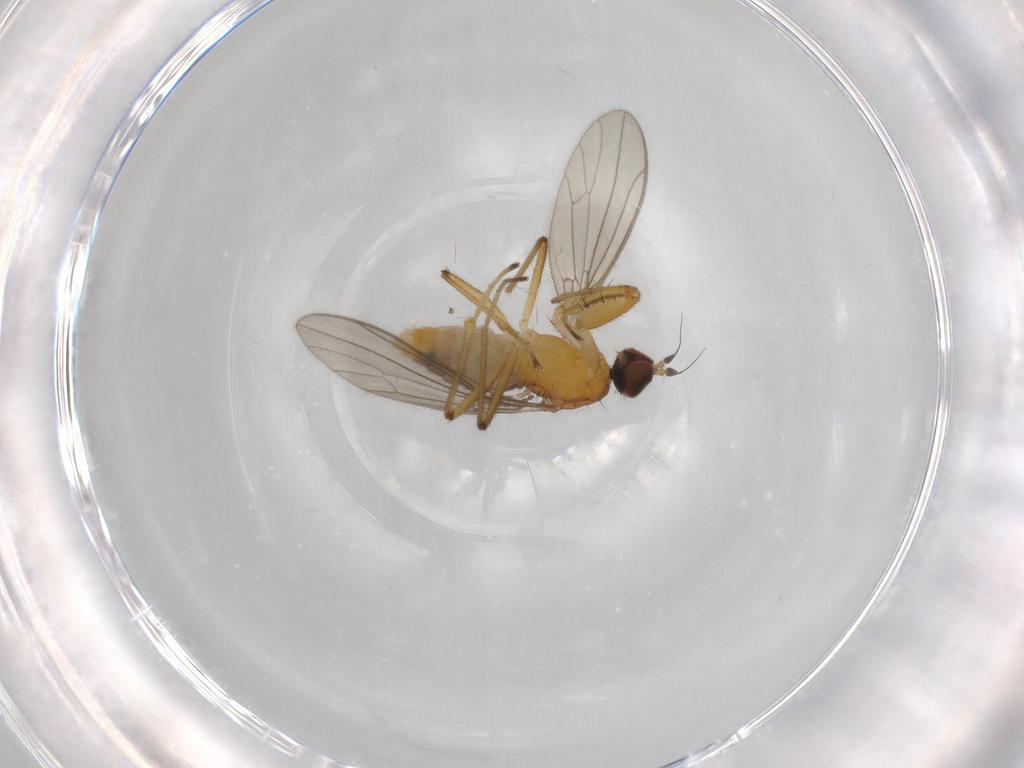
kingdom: Animalia
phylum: Arthropoda
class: Insecta
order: Diptera
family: Empididae
